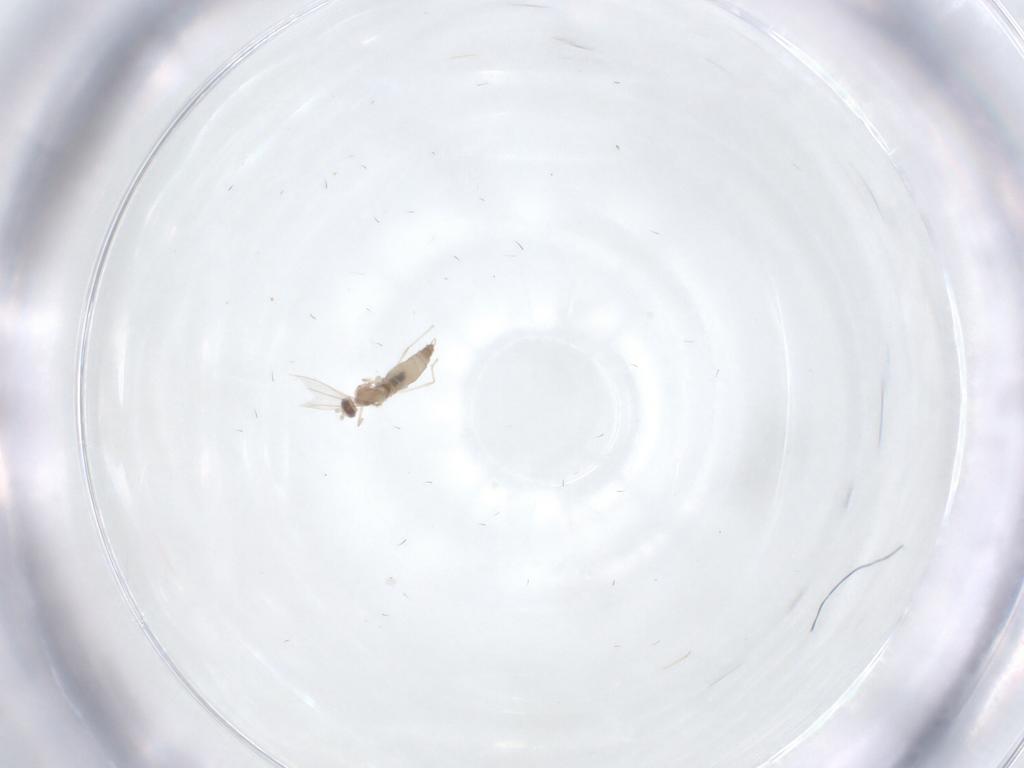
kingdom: Animalia
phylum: Arthropoda
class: Insecta
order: Diptera
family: Cecidomyiidae
